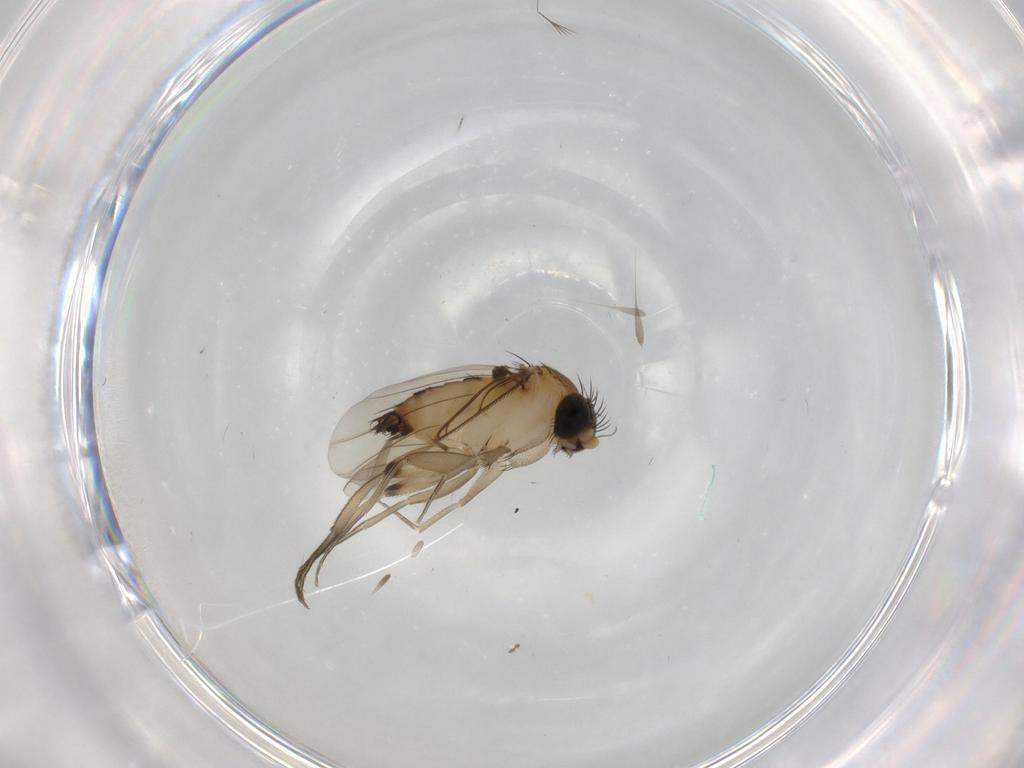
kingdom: Animalia
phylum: Arthropoda
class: Insecta
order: Diptera
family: Phoridae
